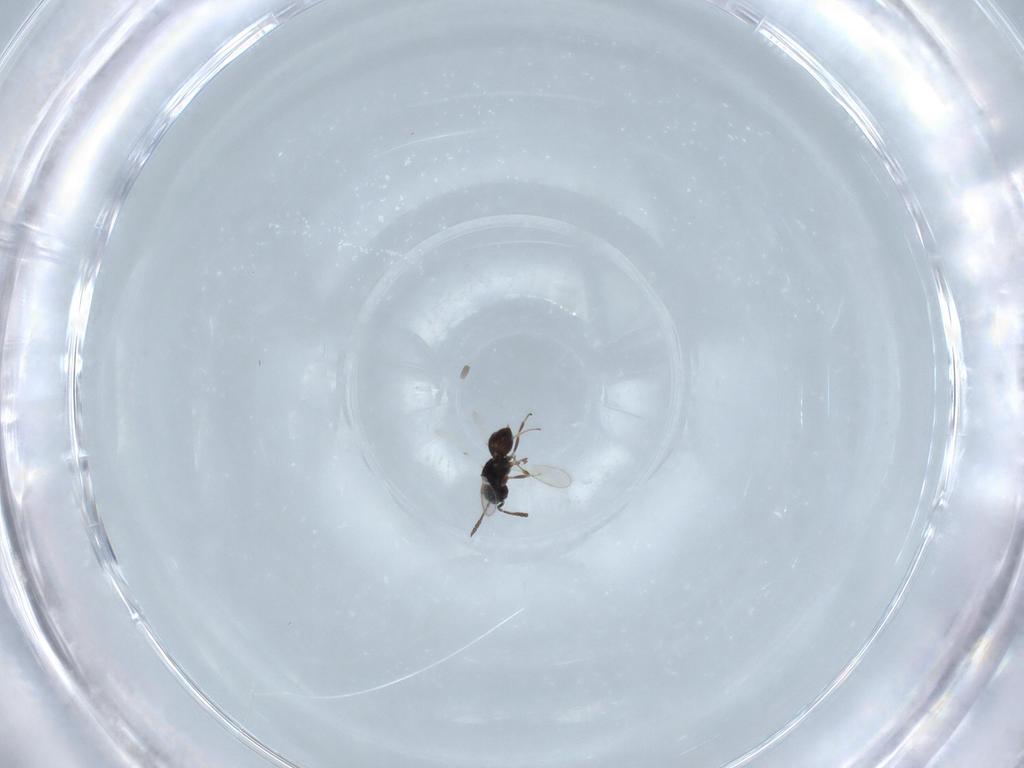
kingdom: Animalia
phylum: Arthropoda
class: Insecta
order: Hymenoptera
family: Scelionidae
